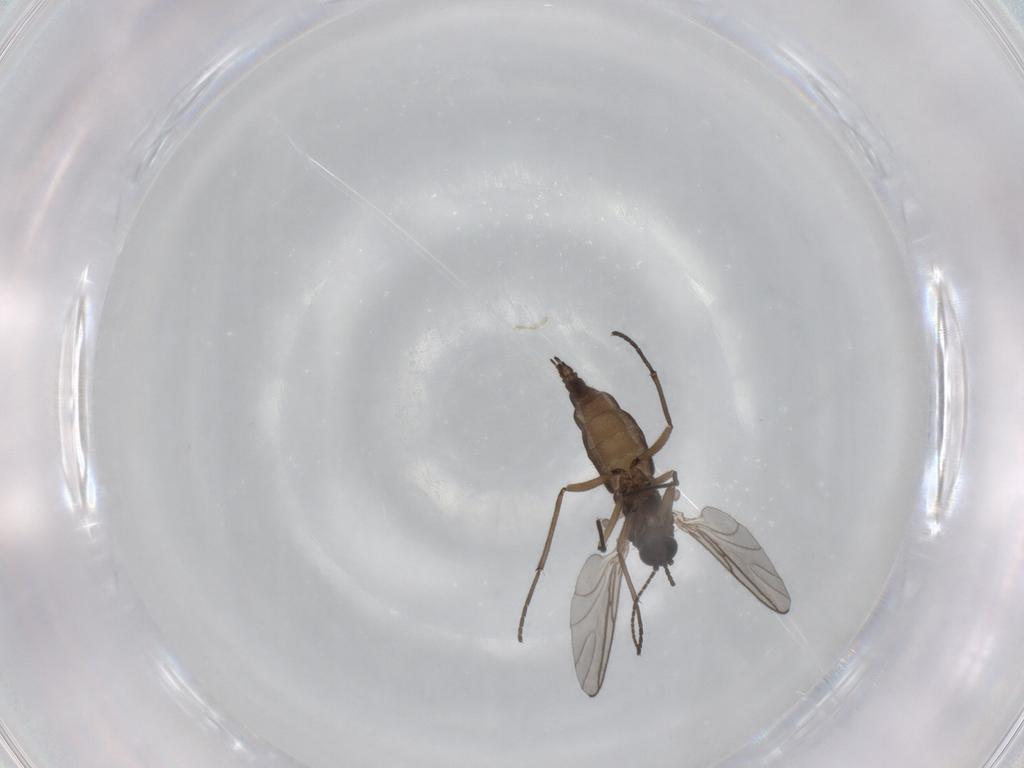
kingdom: Animalia
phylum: Arthropoda
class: Insecta
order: Diptera
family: Sciaridae
